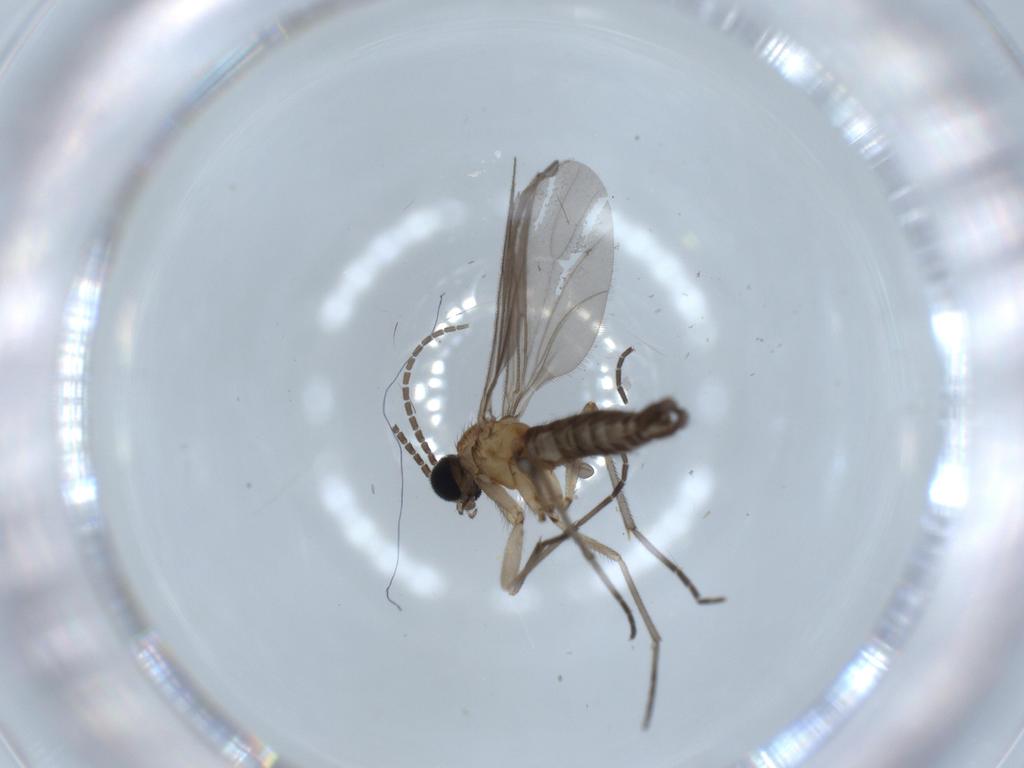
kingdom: Animalia
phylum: Arthropoda
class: Insecta
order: Diptera
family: Sciaridae
